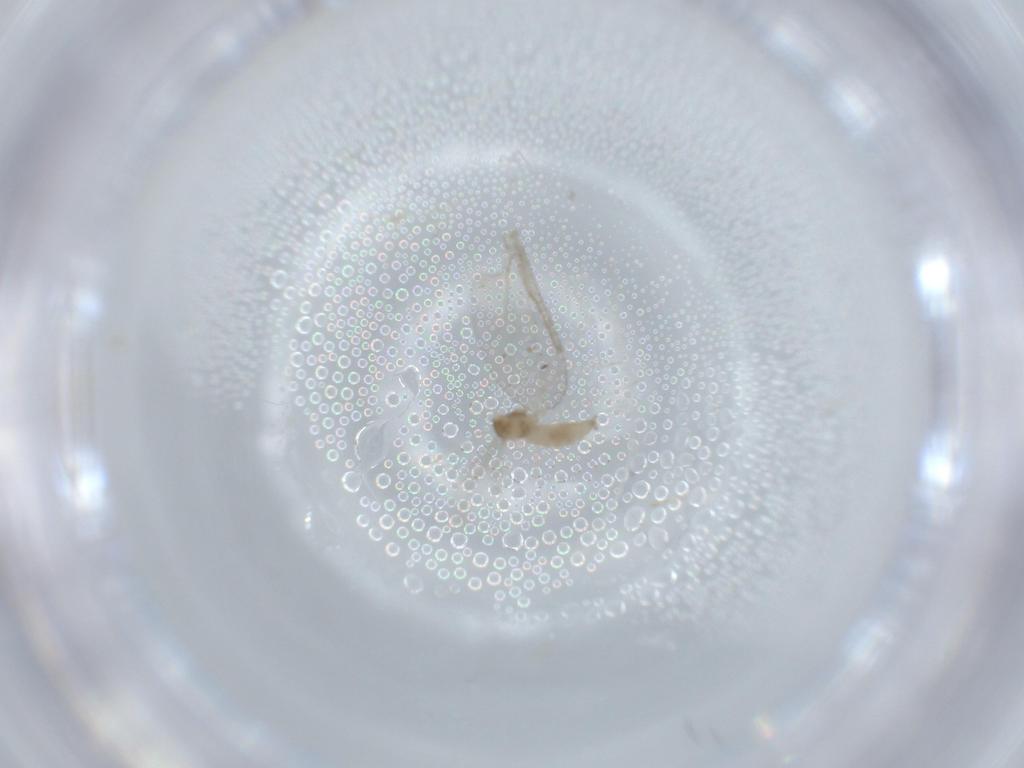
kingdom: Animalia
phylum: Arthropoda
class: Insecta
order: Diptera
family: Cecidomyiidae
